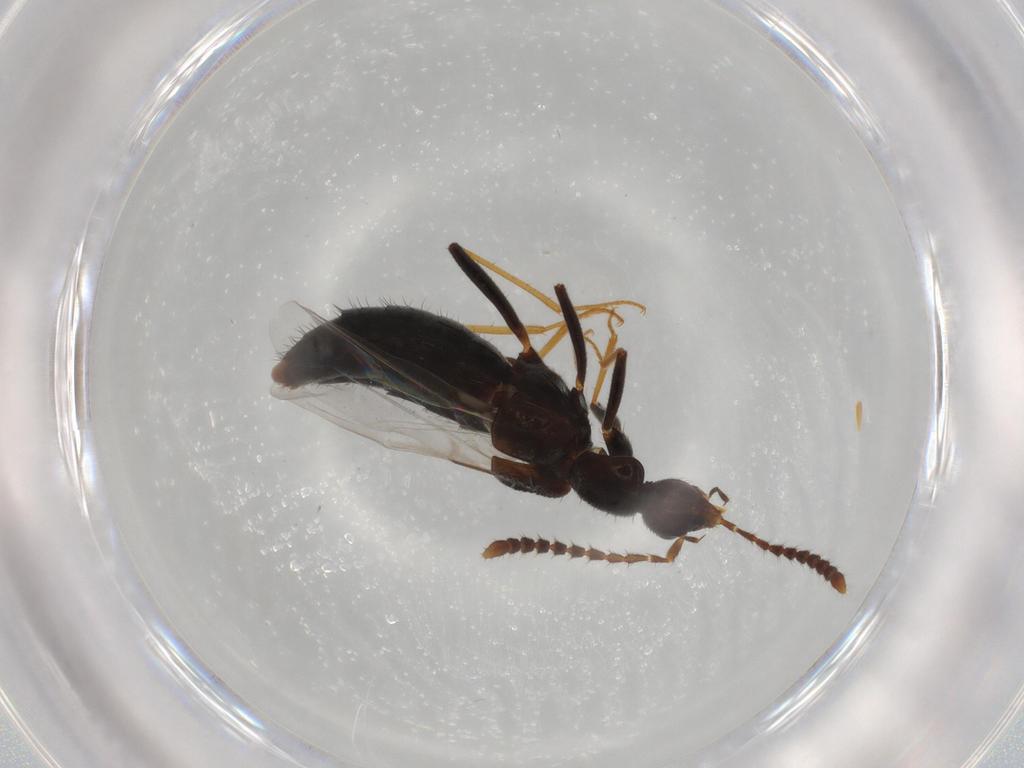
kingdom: Animalia
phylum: Arthropoda
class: Insecta
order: Coleoptera
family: Staphylinidae
